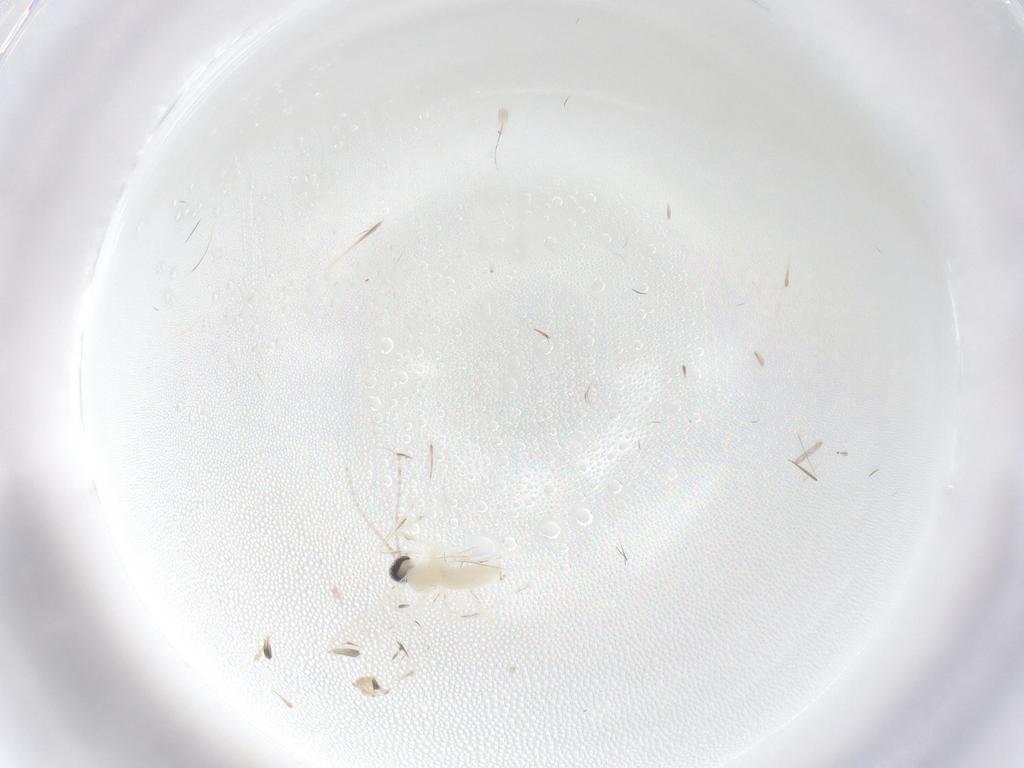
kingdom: Animalia
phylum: Arthropoda
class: Insecta
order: Diptera
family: Cecidomyiidae
